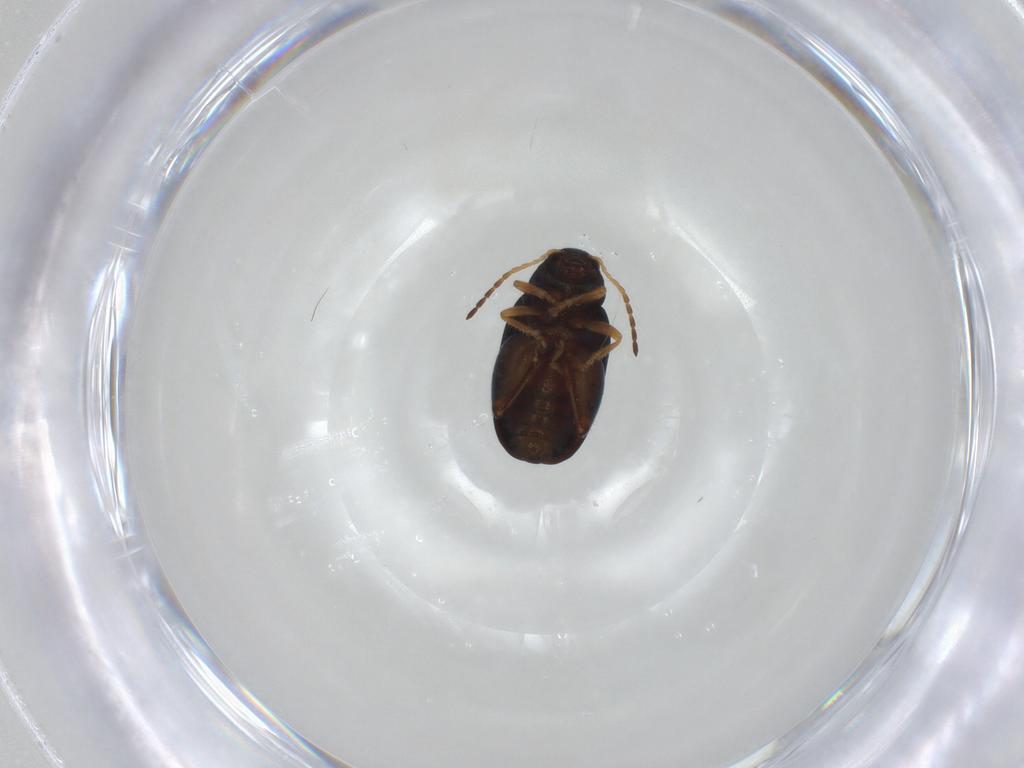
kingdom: Animalia
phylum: Arthropoda
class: Insecta
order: Coleoptera
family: Chrysomelidae
